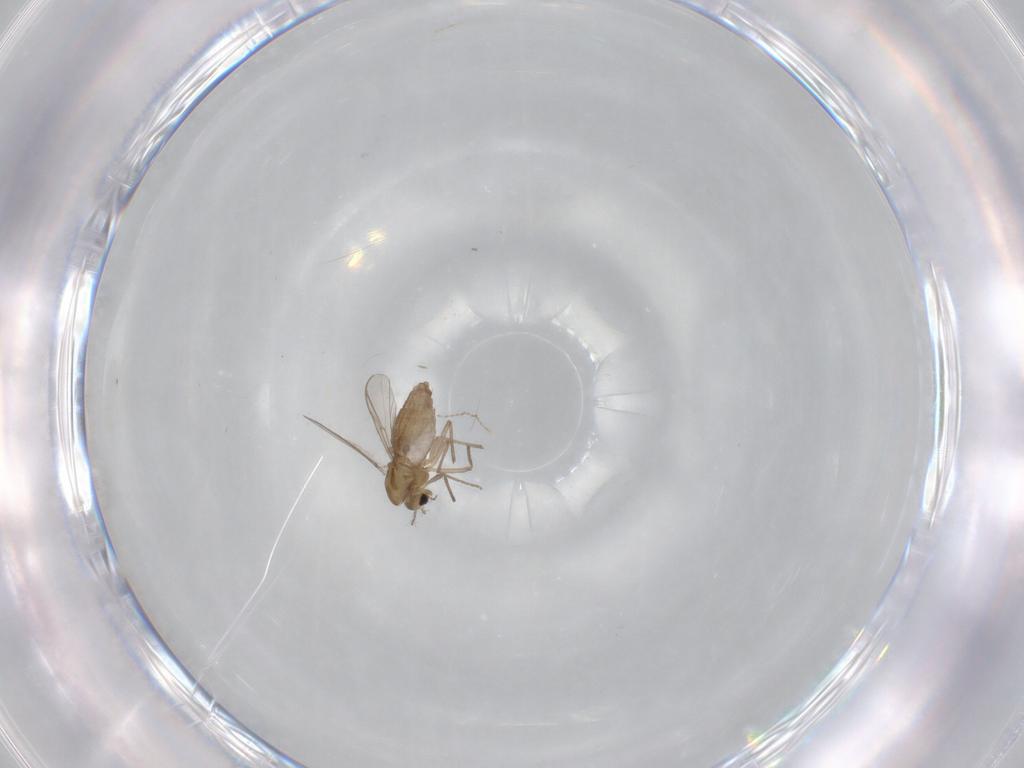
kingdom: Animalia
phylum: Arthropoda
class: Insecta
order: Diptera
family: Chironomidae
